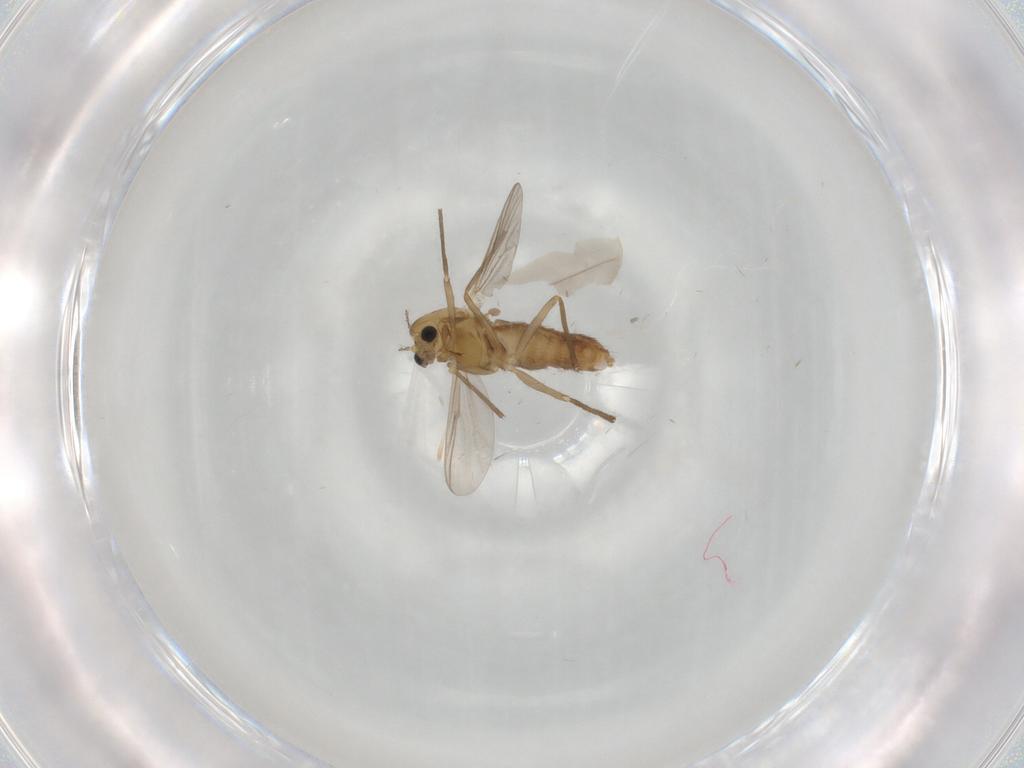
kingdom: Animalia
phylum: Arthropoda
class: Insecta
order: Diptera
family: Chironomidae
